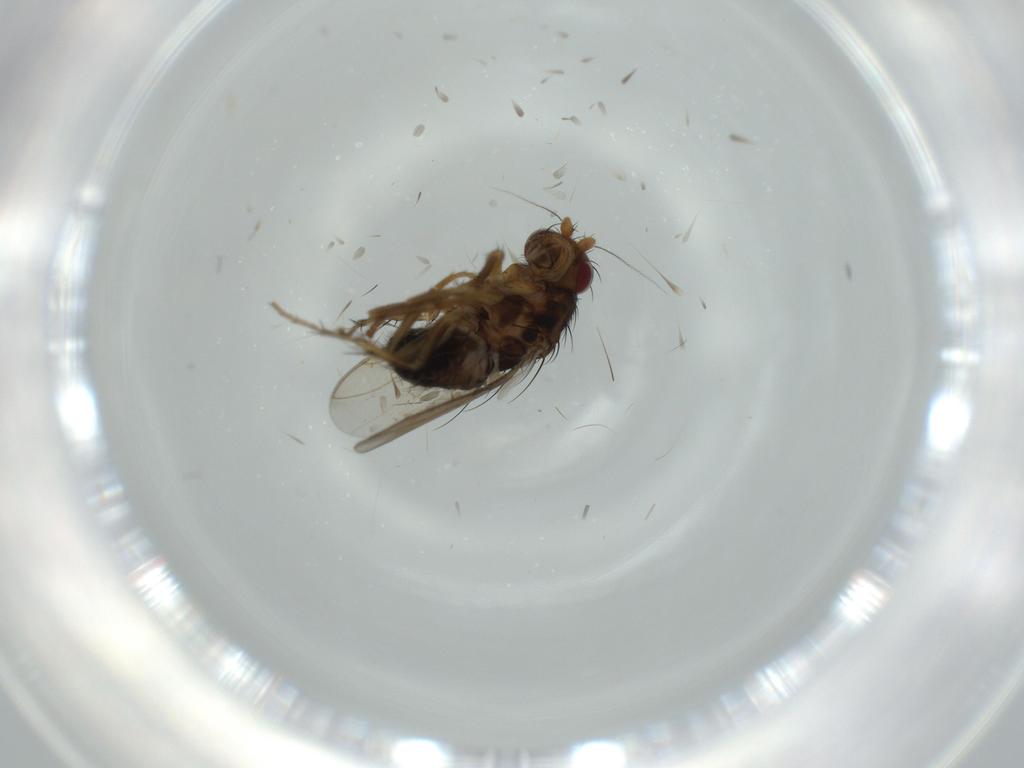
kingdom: Animalia
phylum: Arthropoda
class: Insecta
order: Diptera
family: Sphaeroceridae
